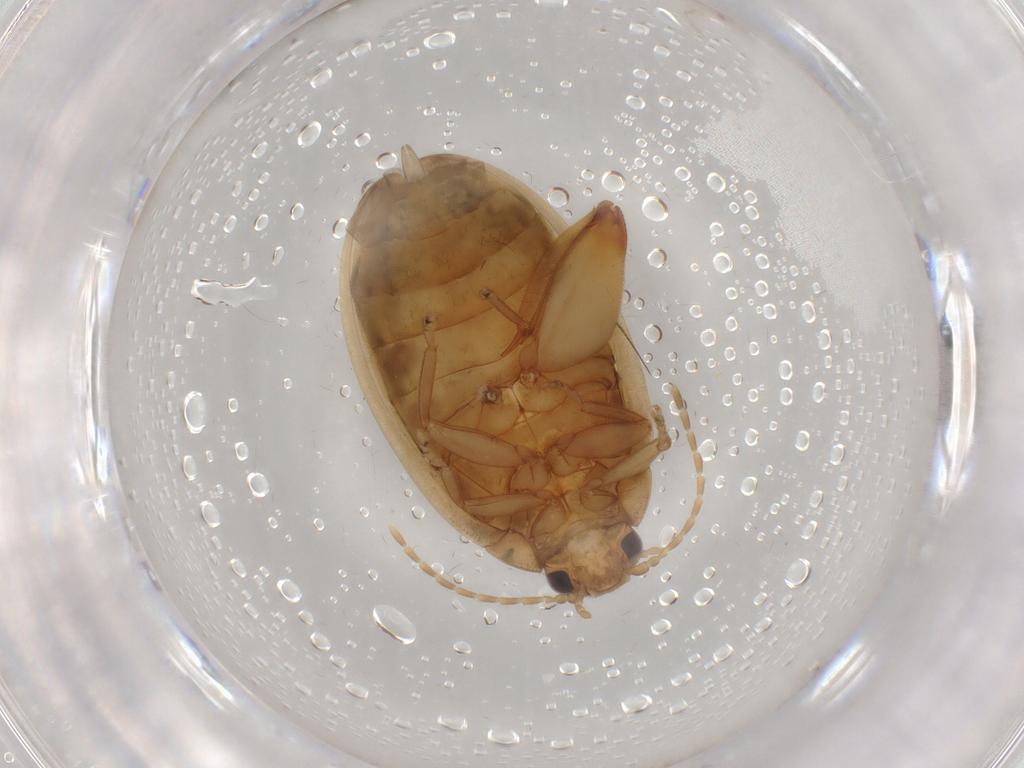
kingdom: Animalia
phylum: Arthropoda
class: Insecta
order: Coleoptera
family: Scirtidae
